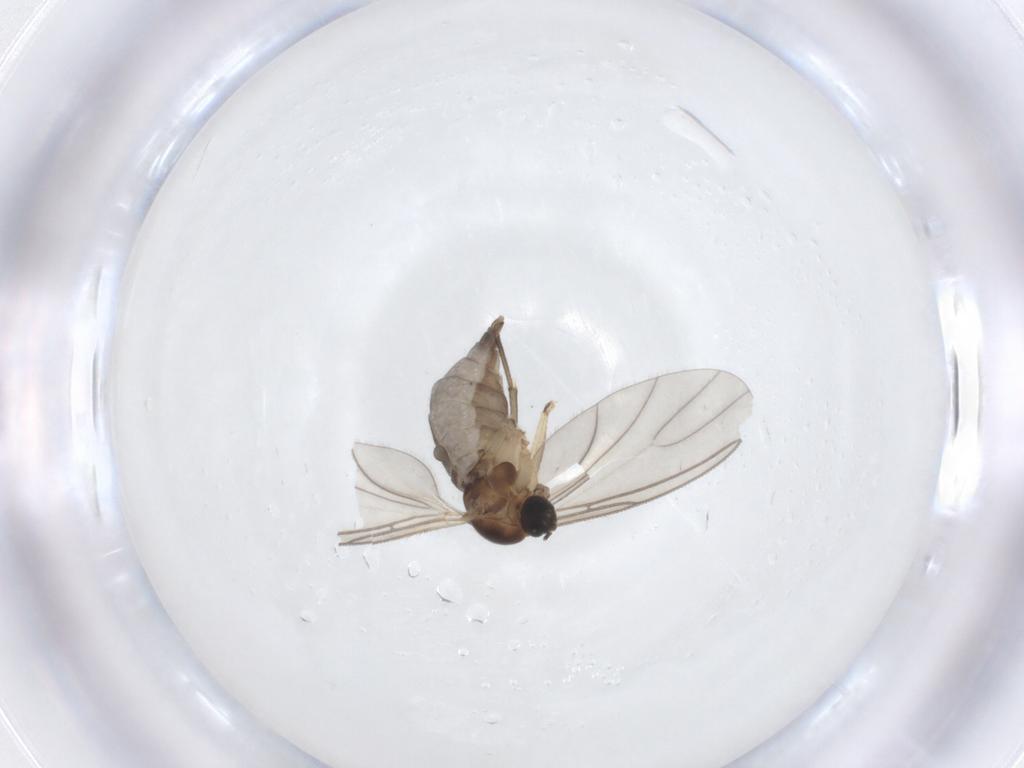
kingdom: Animalia
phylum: Arthropoda
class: Insecta
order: Diptera
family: Sciaridae
